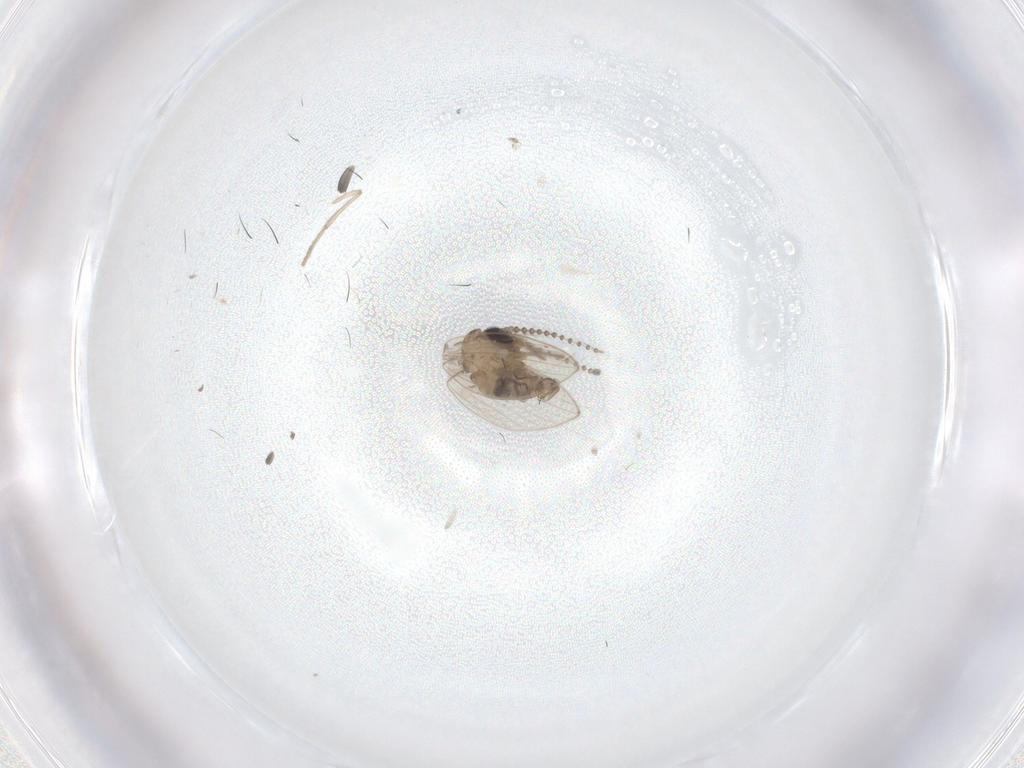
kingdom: Animalia
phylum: Arthropoda
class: Insecta
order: Diptera
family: Psychodidae
